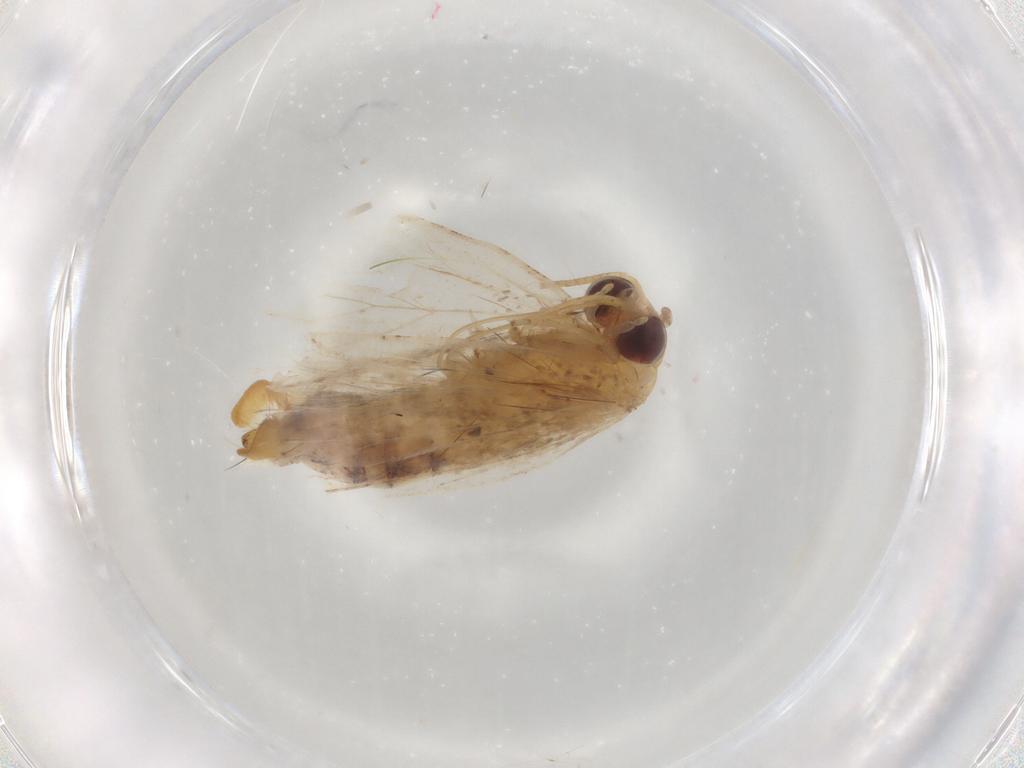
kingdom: Animalia
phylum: Arthropoda
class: Insecta
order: Lepidoptera
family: Erebidae
